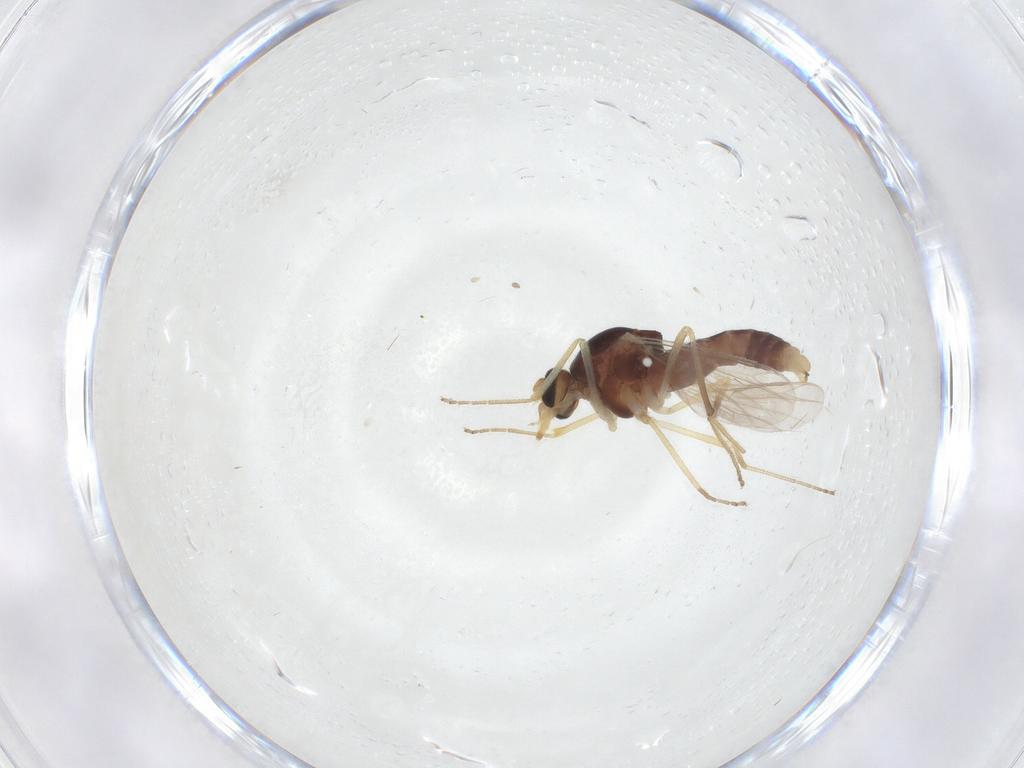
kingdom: Animalia
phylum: Arthropoda
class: Insecta
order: Diptera
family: Ceratopogonidae
